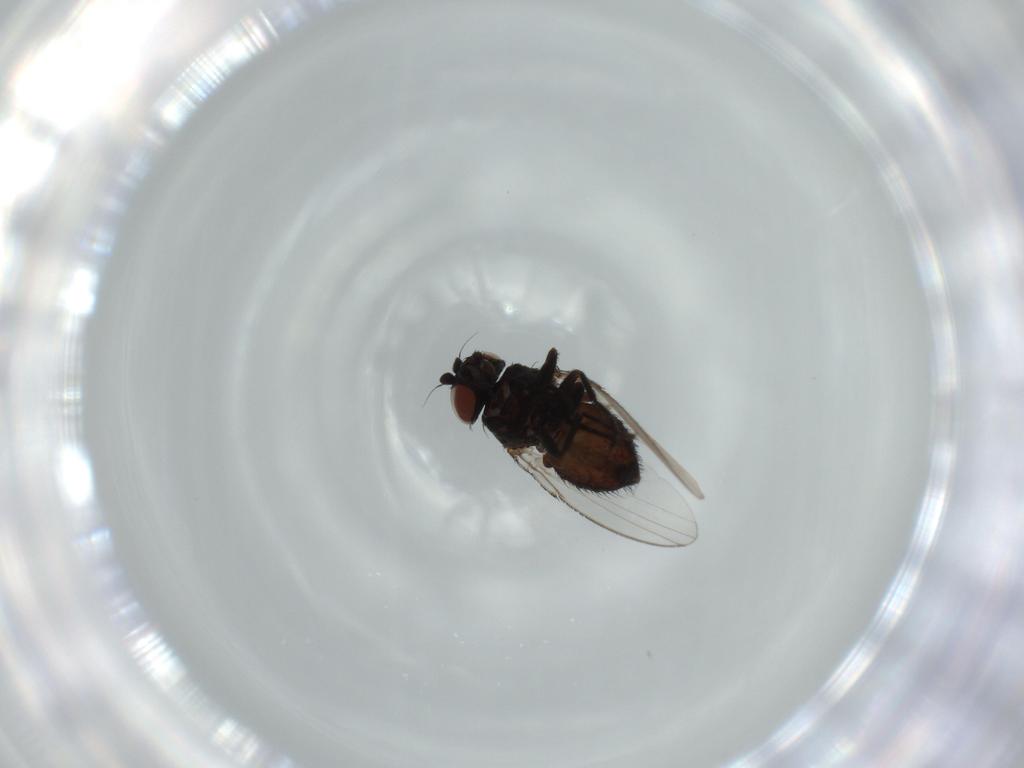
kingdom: Animalia
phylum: Arthropoda
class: Insecta
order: Diptera
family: Milichiidae
